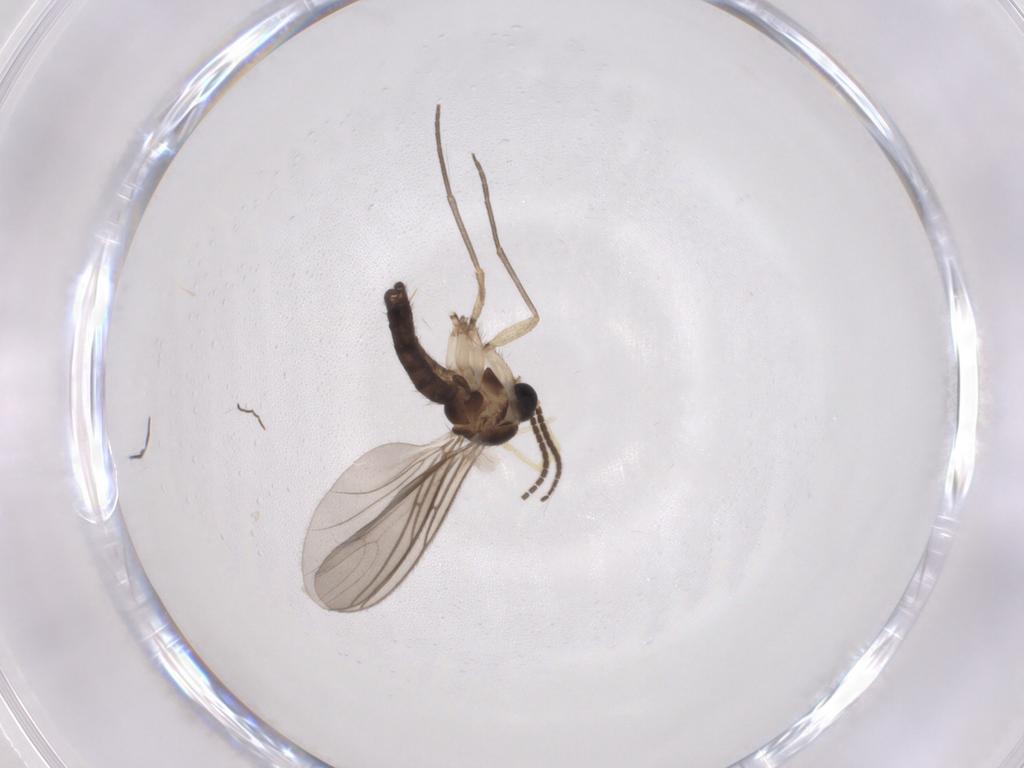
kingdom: Animalia
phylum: Arthropoda
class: Insecta
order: Diptera
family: Sciaridae
